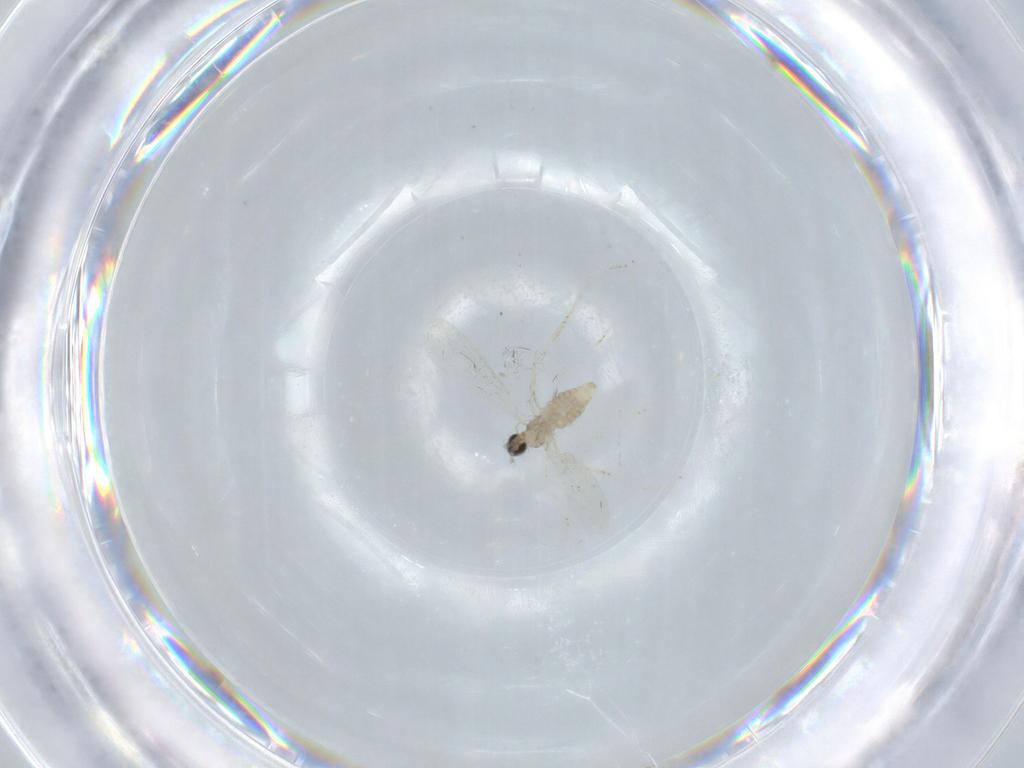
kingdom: Animalia
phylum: Arthropoda
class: Insecta
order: Diptera
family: Cecidomyiidae
